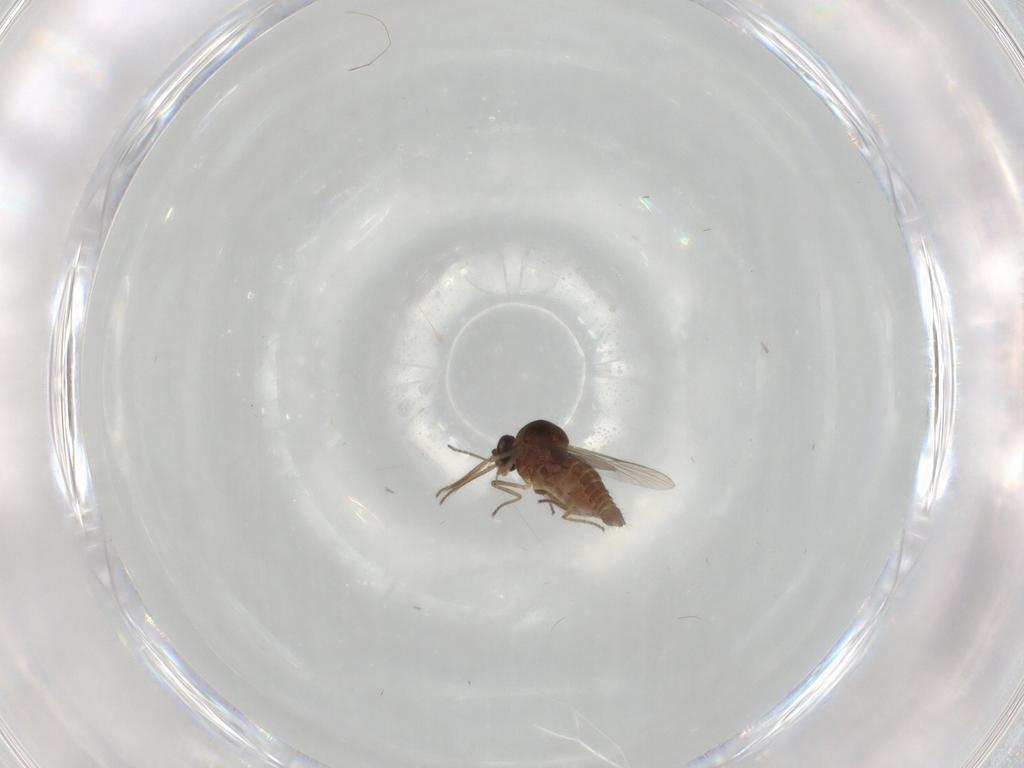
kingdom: Animalia
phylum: Arthropoda
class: Insecta
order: Diptera
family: Ceratopogonidae
